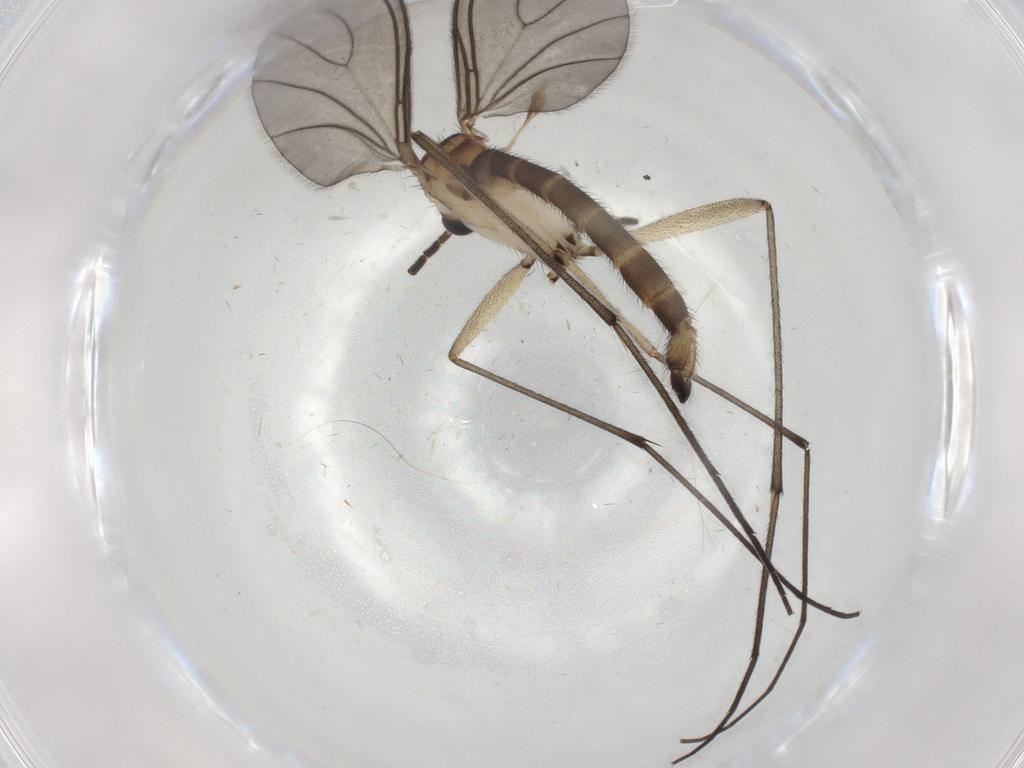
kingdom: Animalia
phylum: Arthropoda
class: Insecta
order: Diptera
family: Sciaridae
